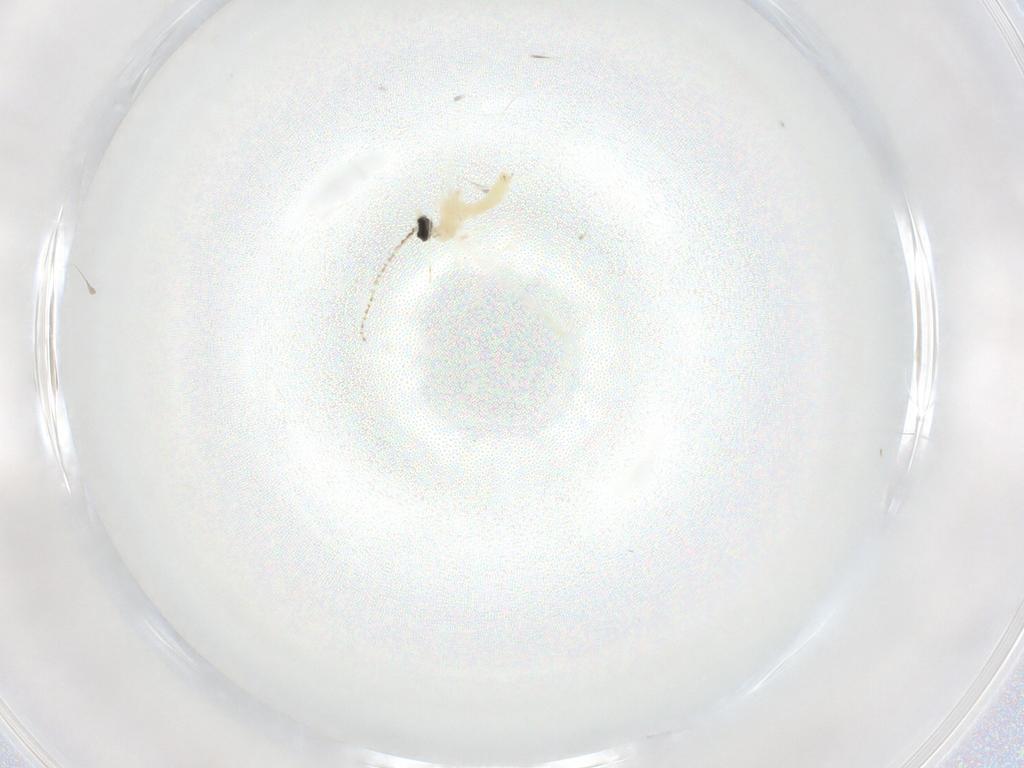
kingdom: Animalia
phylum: Arthropoda
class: Insecta
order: Diptera
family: Cecidomyiidae
